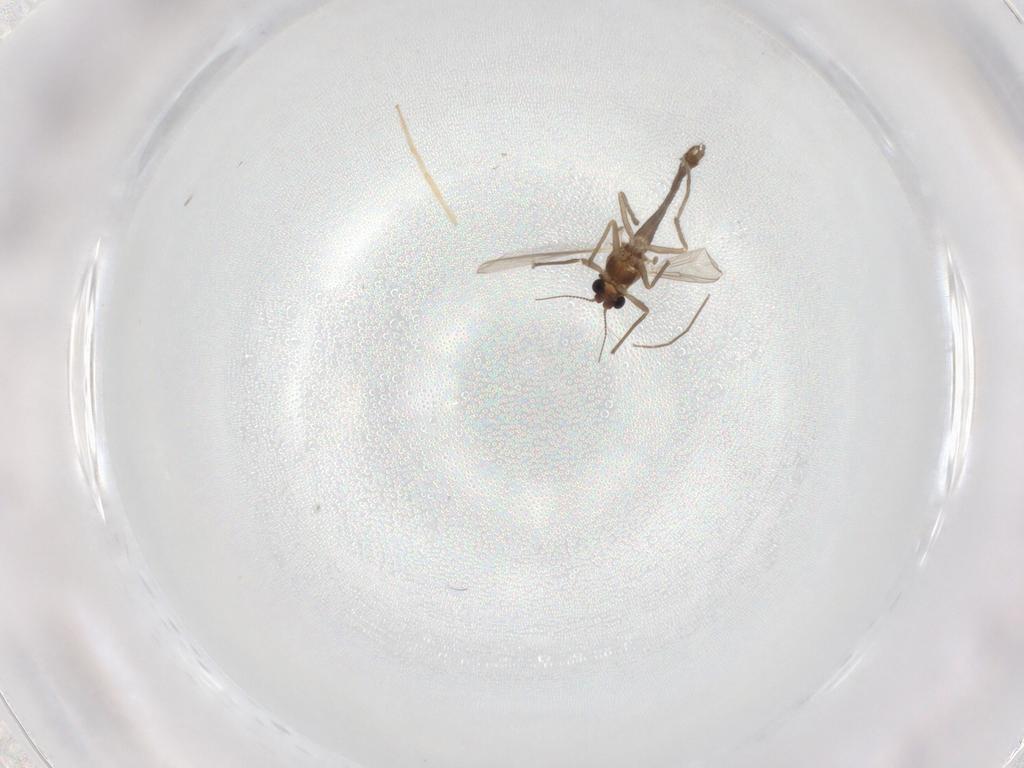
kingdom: Animalia
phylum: Arthropoda
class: Insecta
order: Diptera
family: Chironomidae
